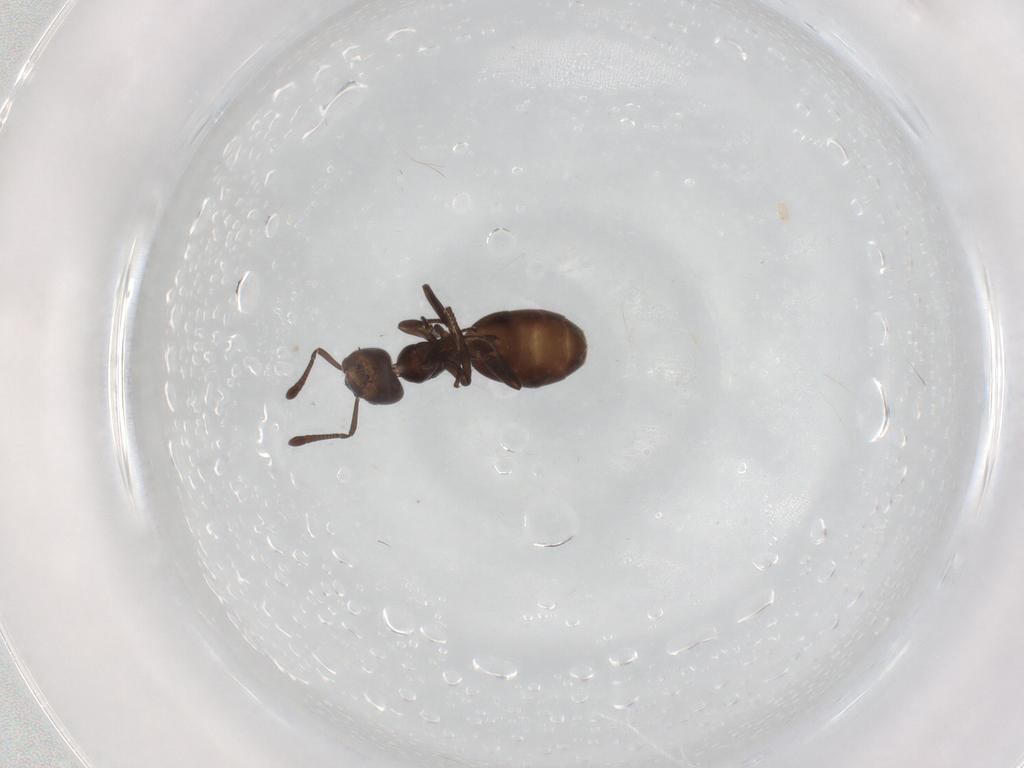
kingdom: Animalia
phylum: Arthropoda
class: Insecta
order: Hymenoptera
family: Formicidae
